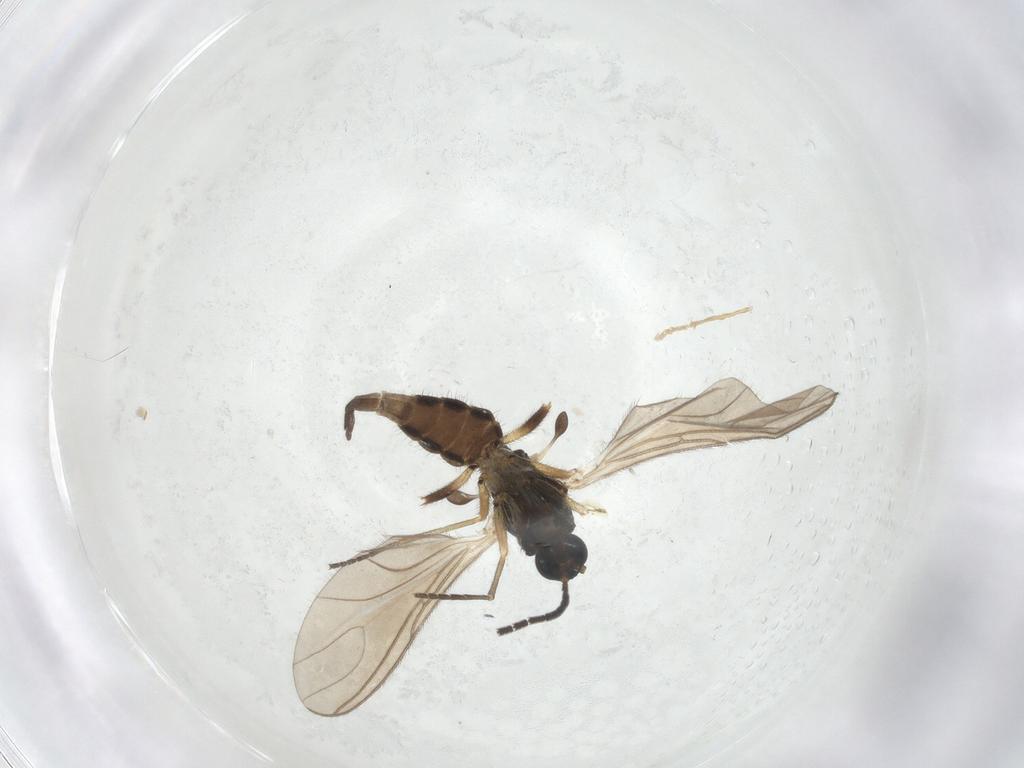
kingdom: Animalia
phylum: Arthropoda
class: Insecta
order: Diptera
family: Sciaridae
